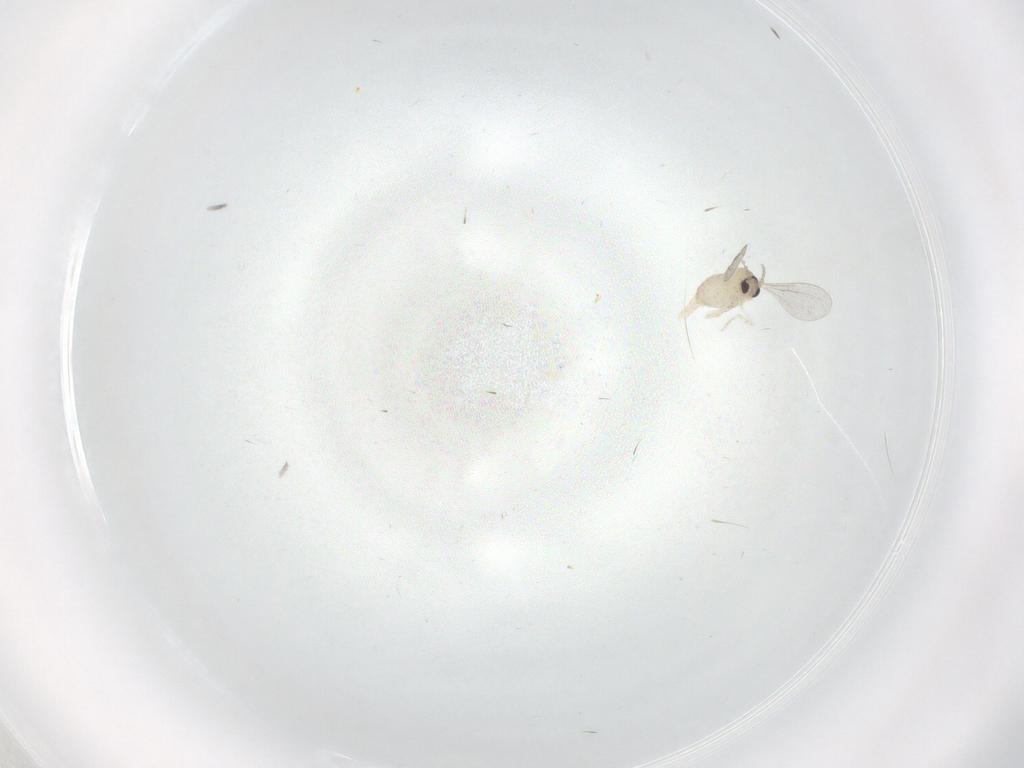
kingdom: Animalia
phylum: Arthropoda
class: Insecta
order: Diptera
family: Cecidomyiidae
